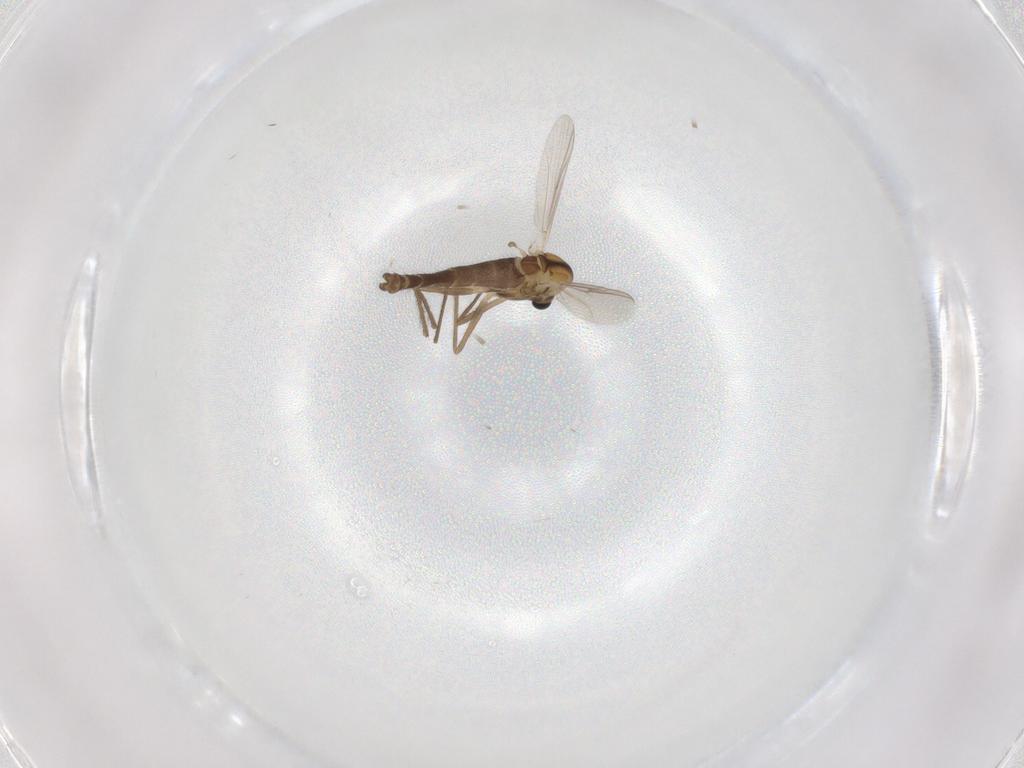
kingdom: Animalia
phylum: Arthropoda
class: Insecta
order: Diptera
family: Chironomidae
